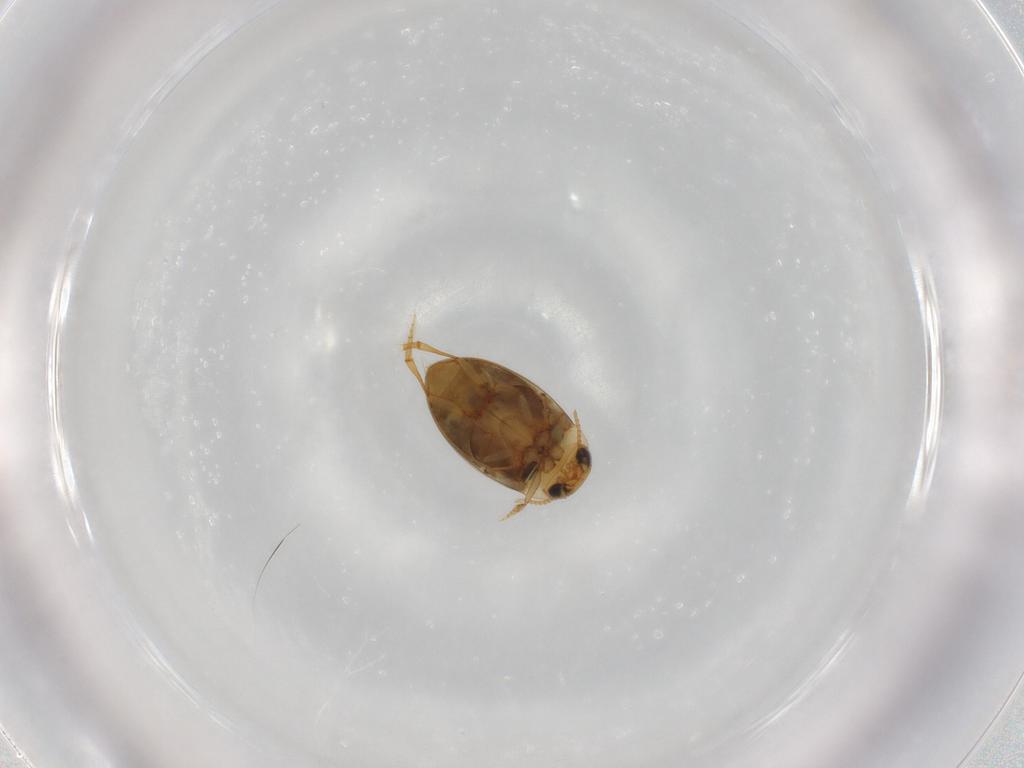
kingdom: Animalia
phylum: Arthropoda
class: Insecta
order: Coleoptera
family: Dytiscidae
